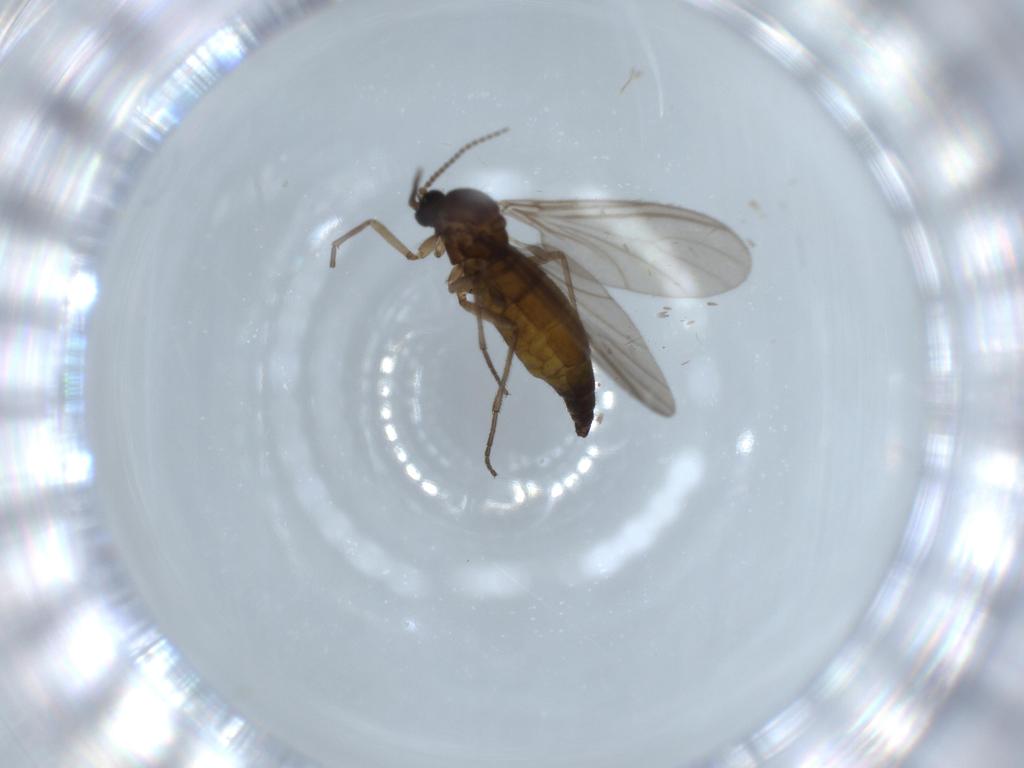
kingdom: Animalia
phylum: Arthropoda
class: Insecta
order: Diptera
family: Sciaridae
